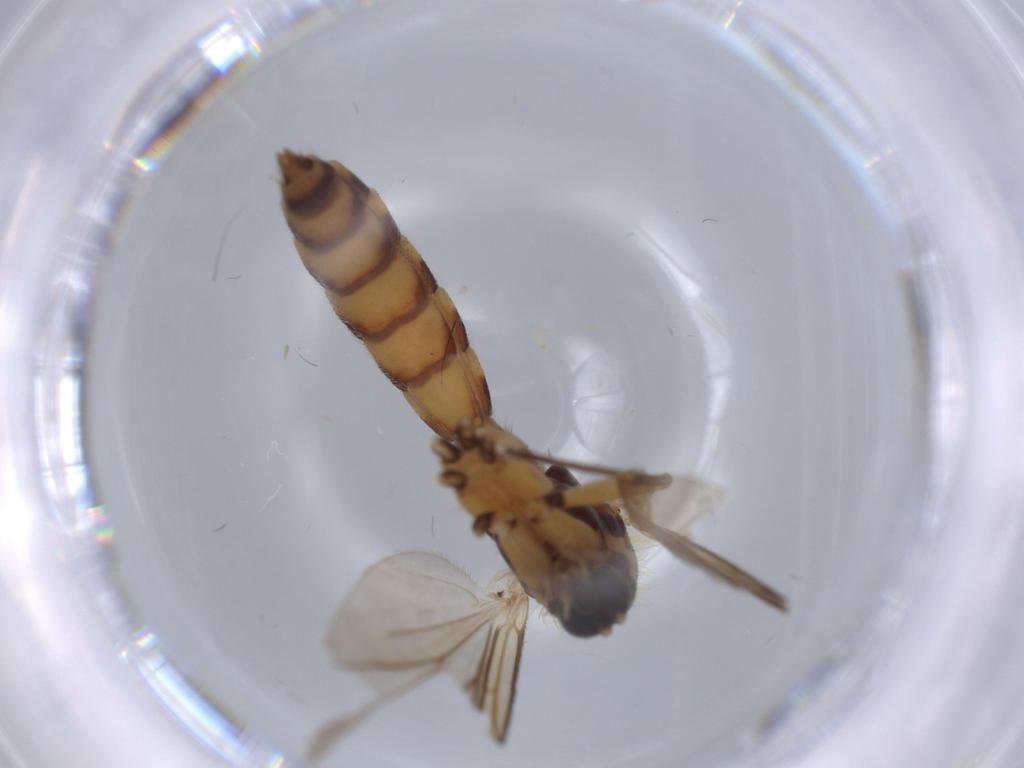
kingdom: Animalia
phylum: Arthropoda
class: Insecta
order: Diptera
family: Mycetophilidae
